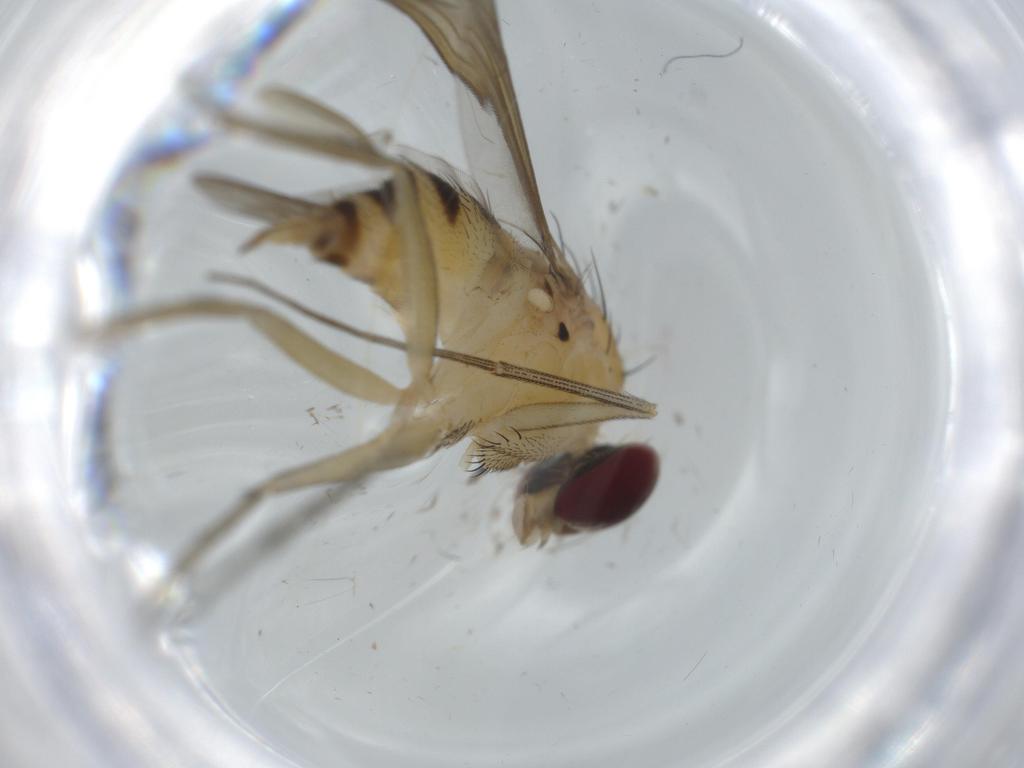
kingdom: Animalia
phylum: Arthropoda
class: Insecta
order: Diptera
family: Dolichopodidae
